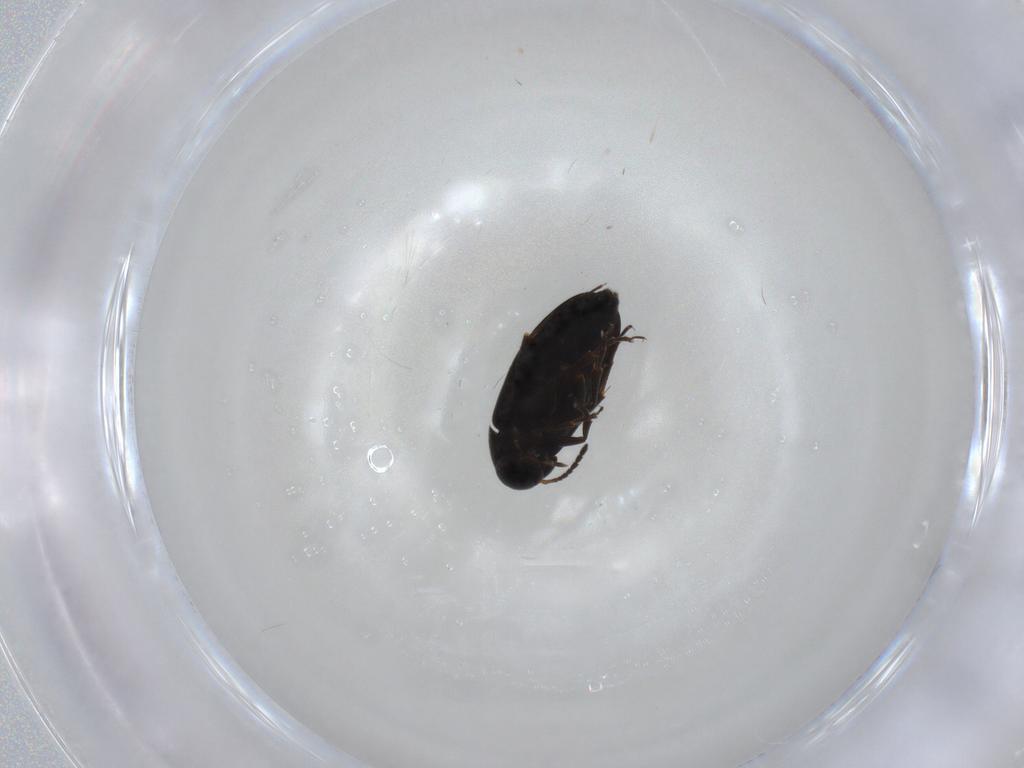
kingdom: Animalia
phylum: Arthropoda
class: Insecta
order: Coleoptera
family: Scraptiidae
